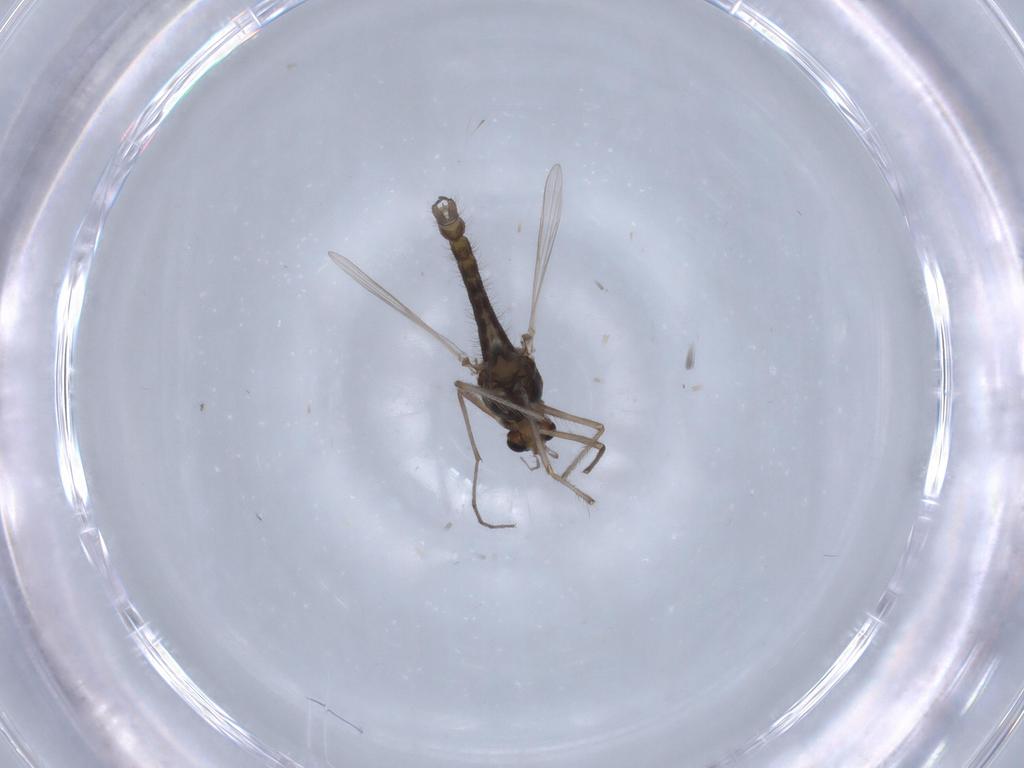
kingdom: Animalia
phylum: Arthropoda
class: Insecta
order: Diptera
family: Chironomidae
